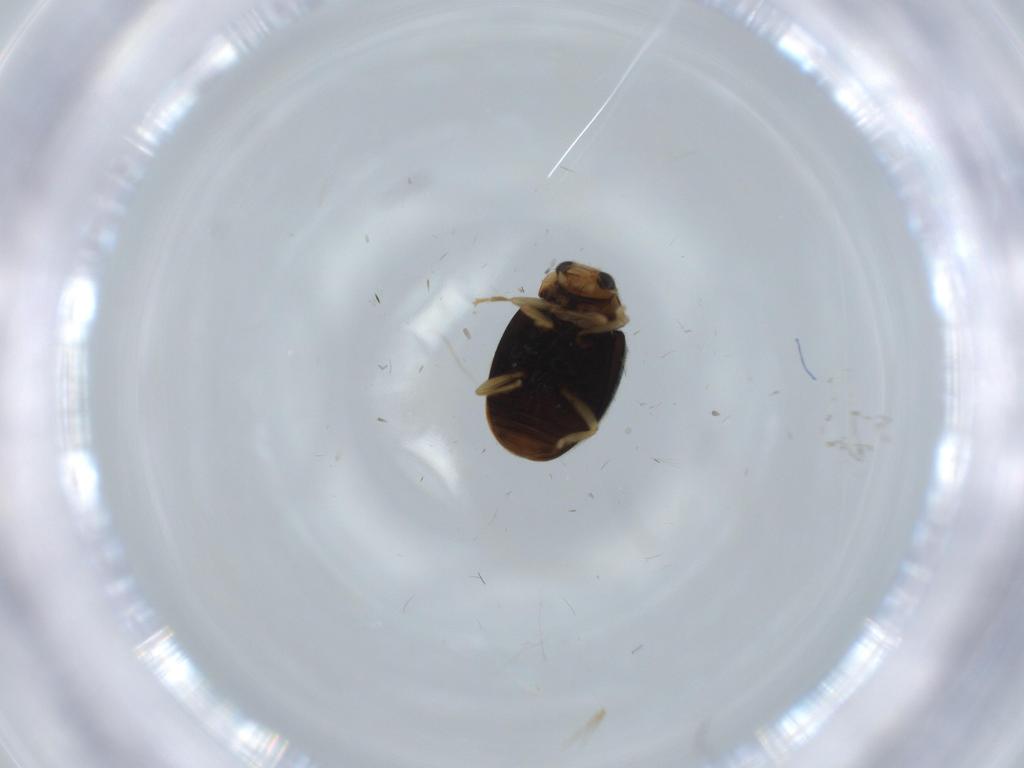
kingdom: Animalia
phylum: Arthropoda
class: Insecta
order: Coleoptera
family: Coccinellidae
